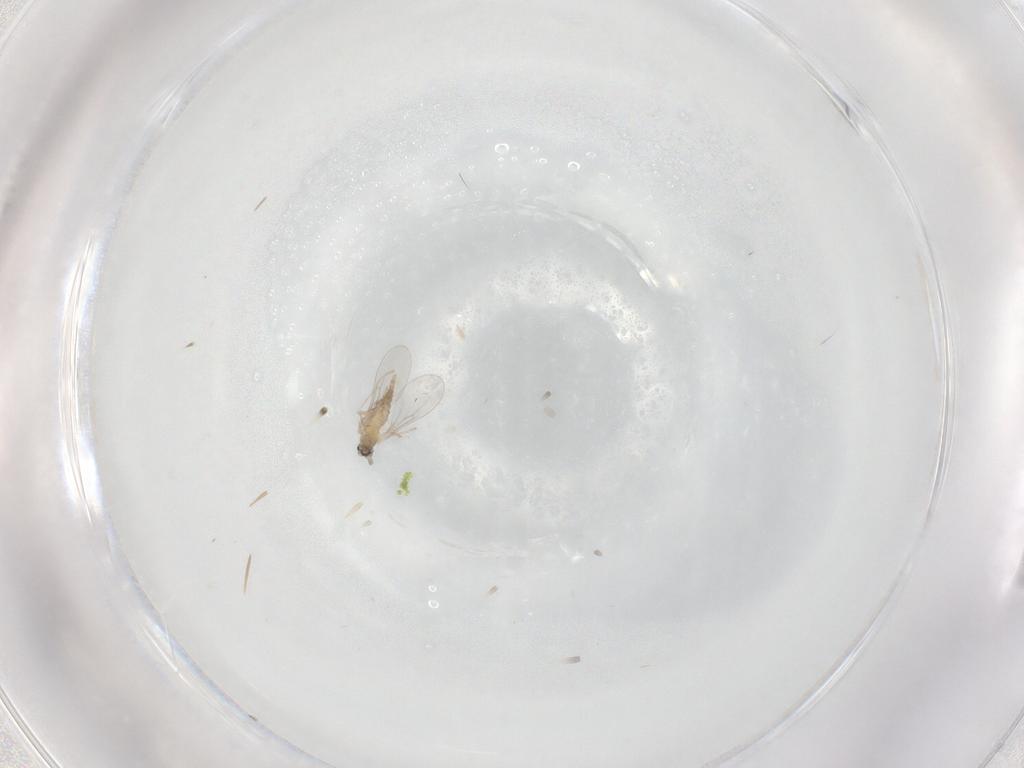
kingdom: Animalia
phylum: Arthropoda
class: Insecta
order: Diptera
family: Cecidomyiidae
